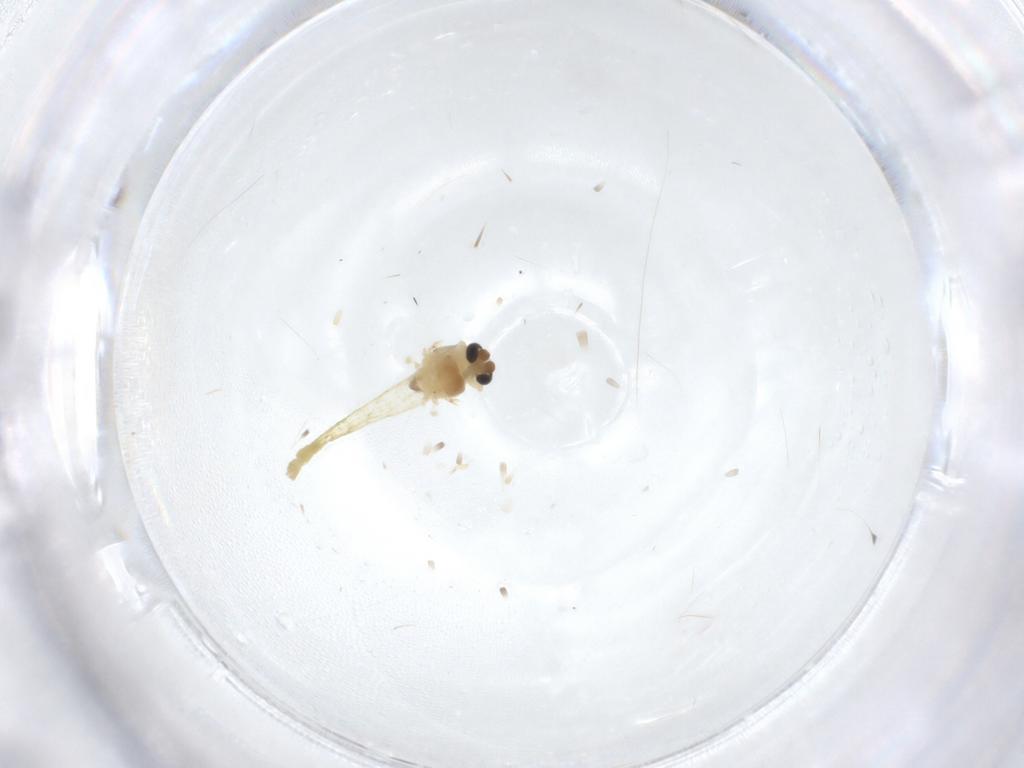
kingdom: Animalia
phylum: Arthropoda
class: Insecta
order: Diptera
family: Chironomidae
